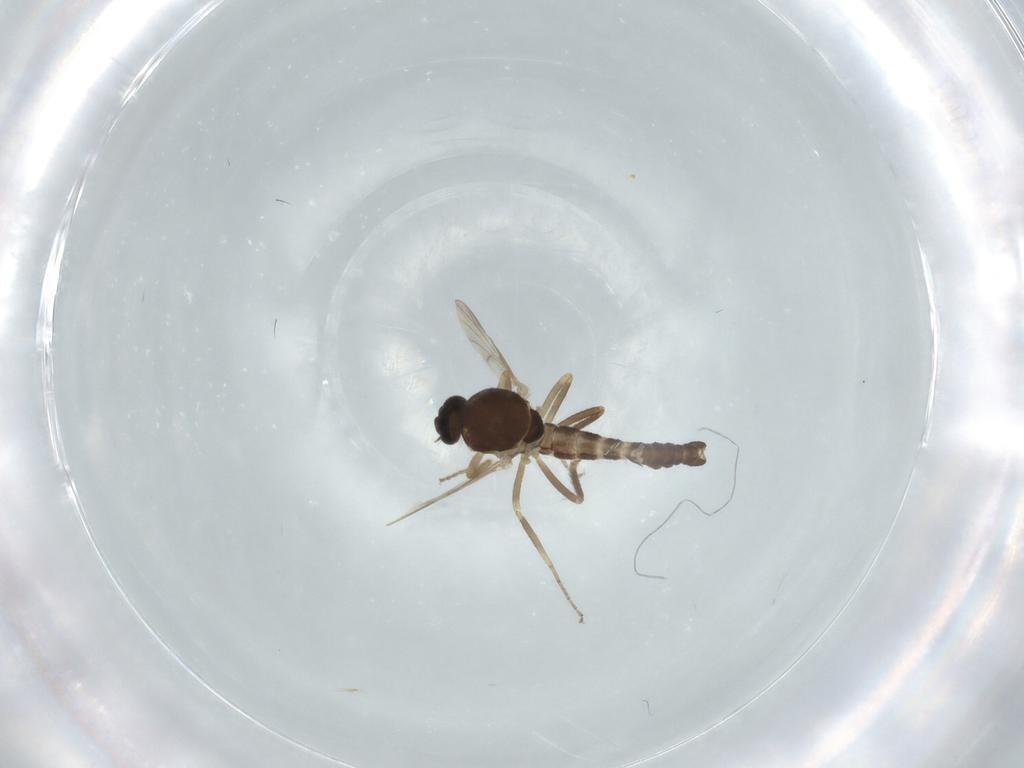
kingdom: Animalia
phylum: Arthropoda
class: Insecta
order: Diptera
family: Ceratopogonidae
